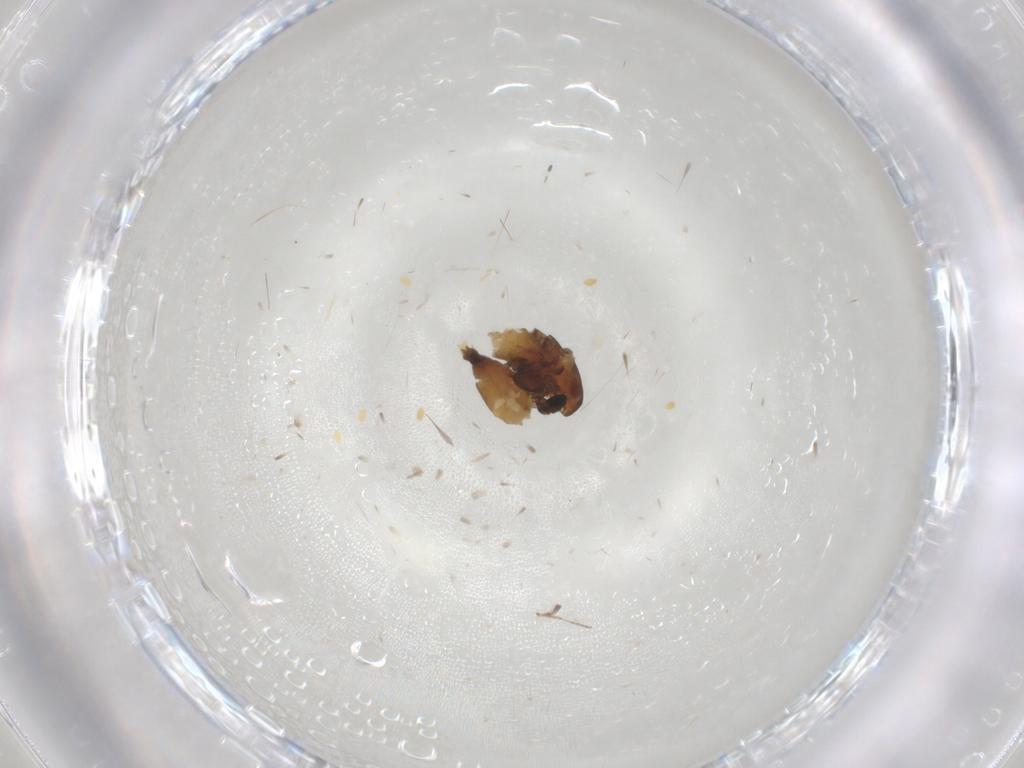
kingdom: Animalia
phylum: Arthropoda
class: Insecta
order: Diptera
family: Chironomidae
